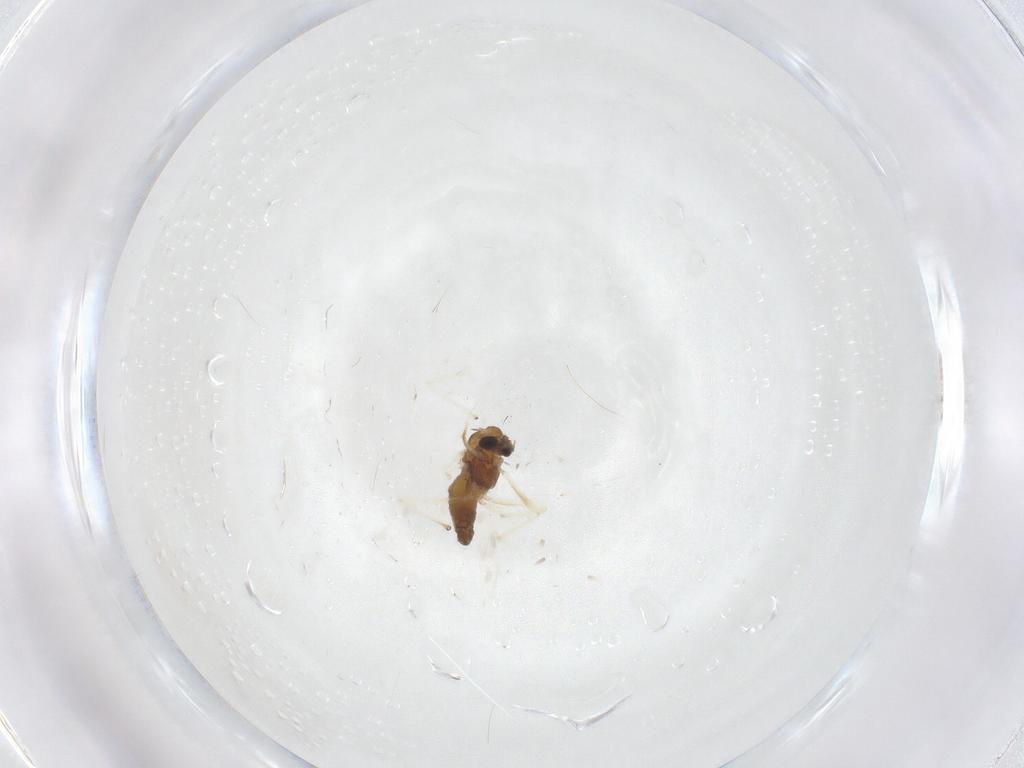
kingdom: Animalia
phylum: Arthropoda
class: Insecta
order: Diptera
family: Chironomidae
